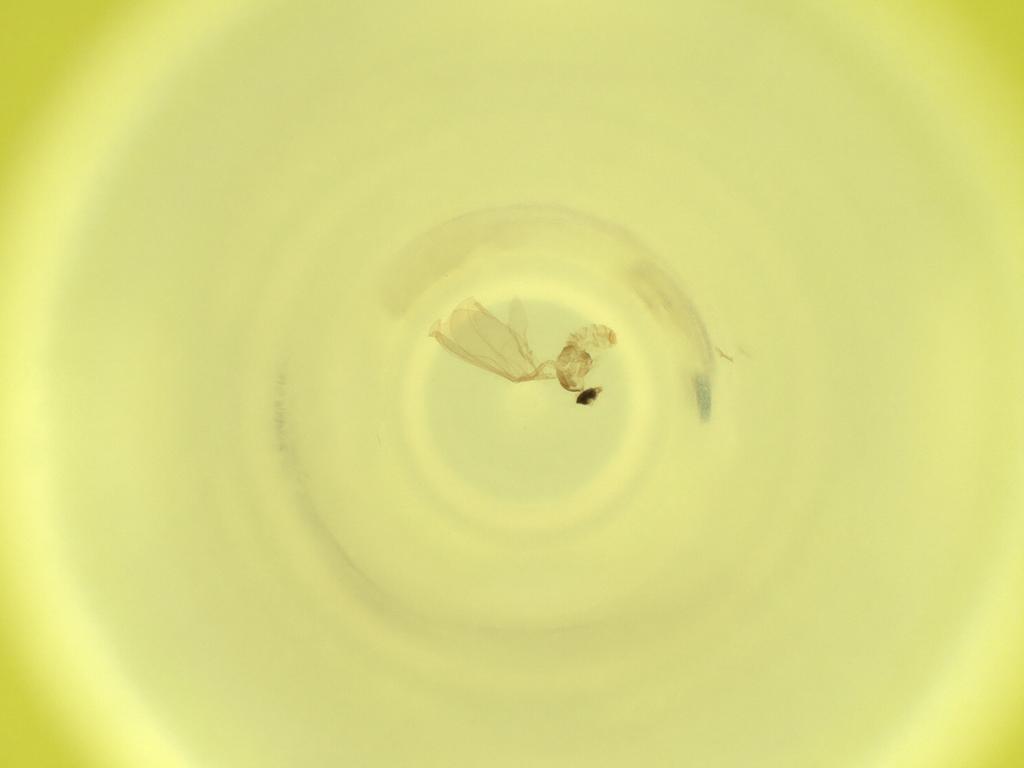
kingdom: Animalia
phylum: Arthropoda
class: Insecta
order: Diptera
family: Cecidomyiidae
